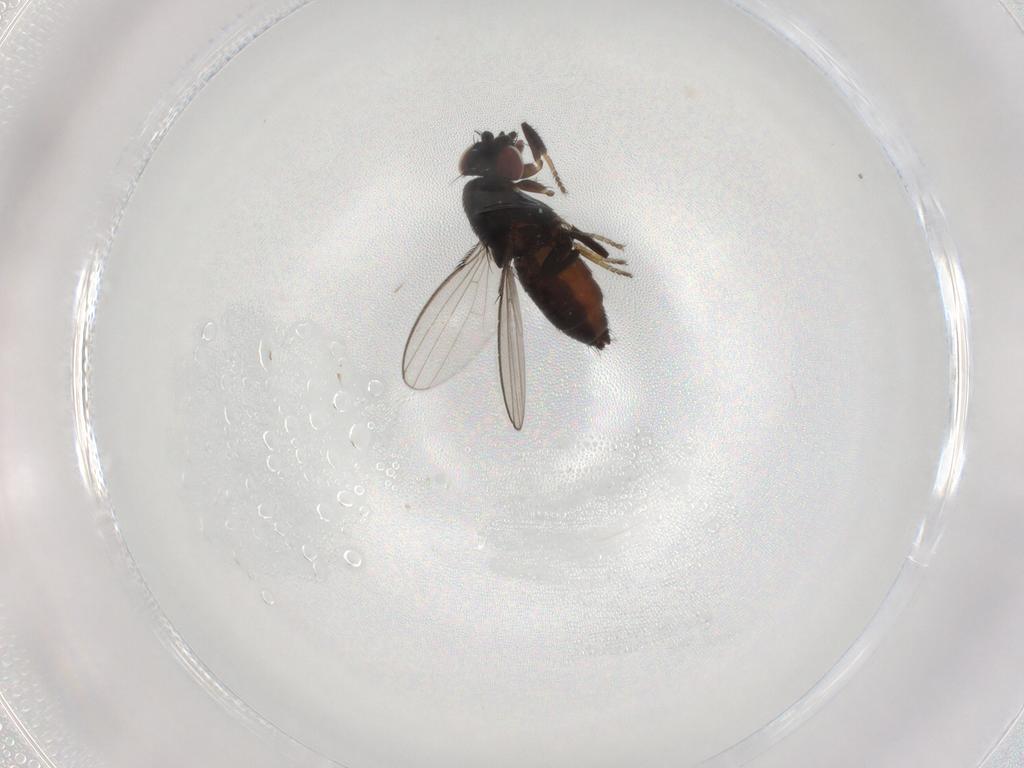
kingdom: Animalia
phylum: Arthropoda
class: Insecta
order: Diptera
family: Milichiidae
